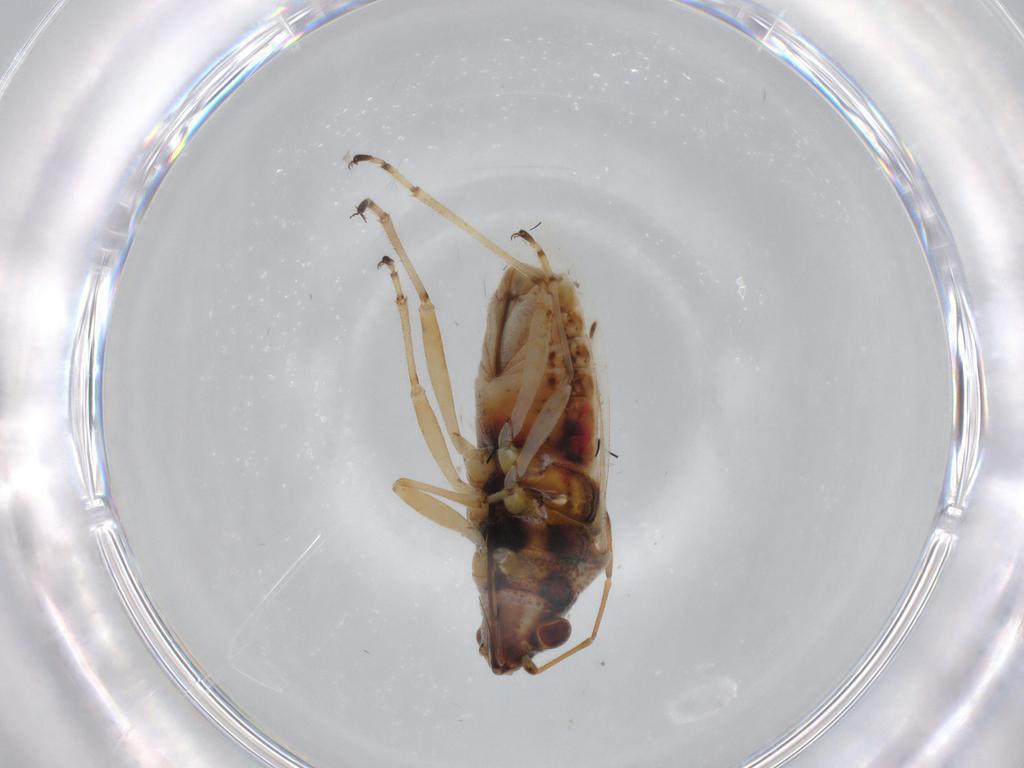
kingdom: Animalia
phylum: Arthropoda
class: Insecta
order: Hemiptera
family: Lygaeidae
